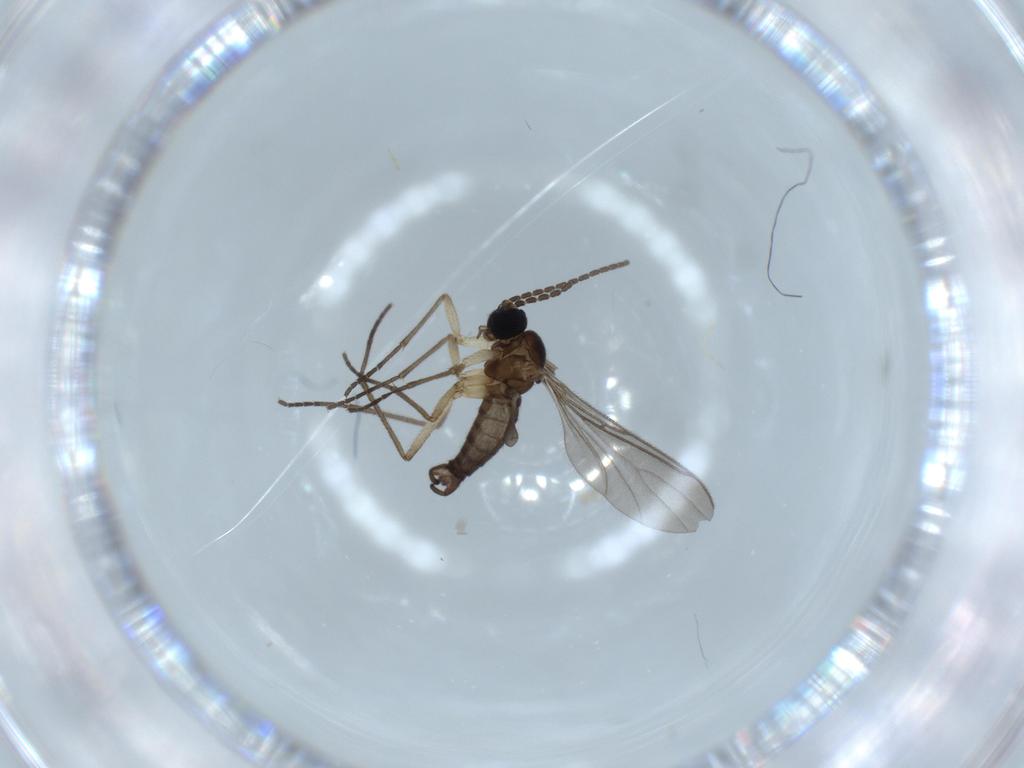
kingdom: Animalia
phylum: Arthropoda
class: Insecta
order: Diptera
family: Sciaridae
